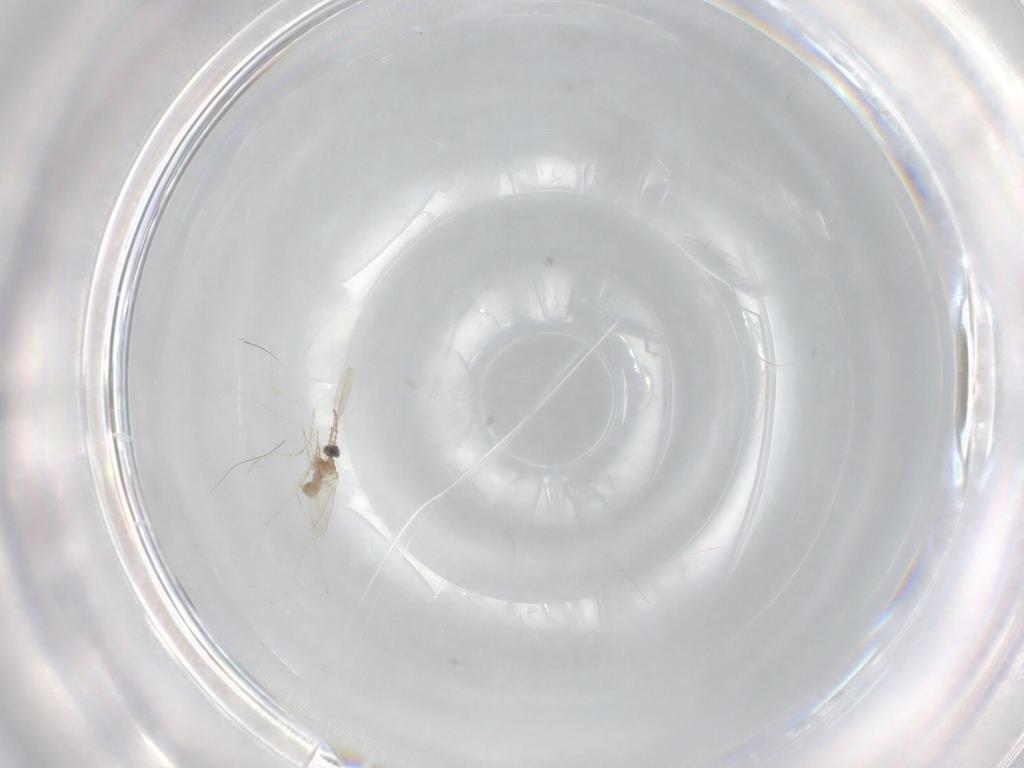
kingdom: Animalia
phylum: Arthropoda
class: Insecta
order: Diptera
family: Cecidomyiidae
